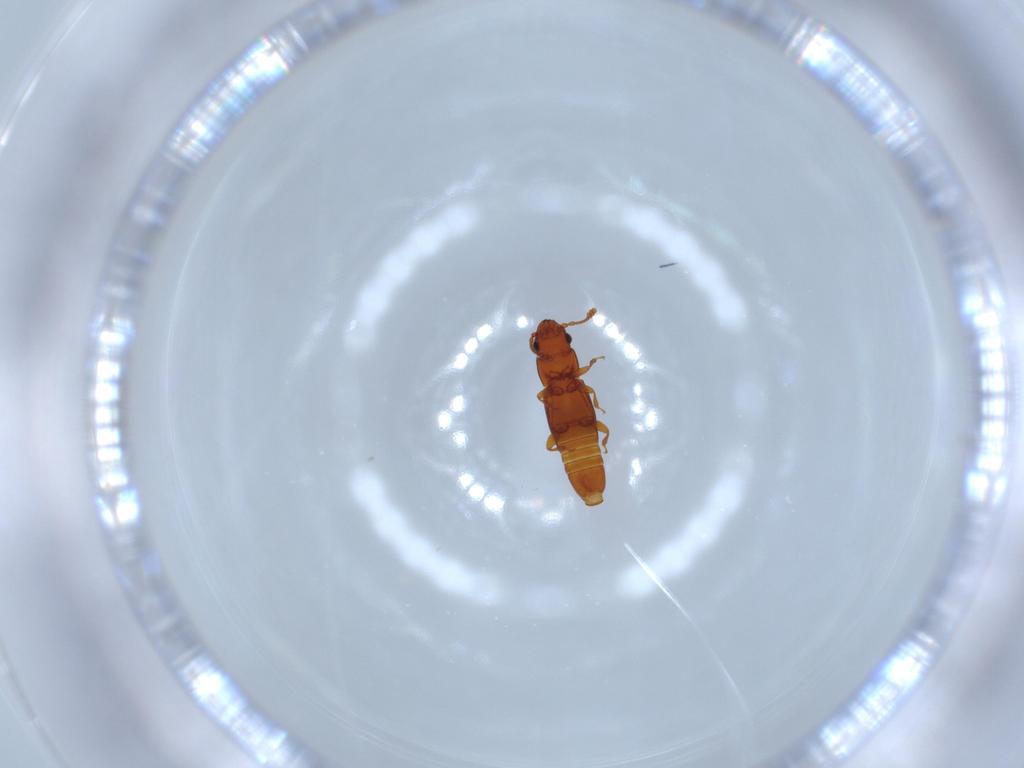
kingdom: Animalia
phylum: Arthropoda
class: Insecta
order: Coleoptera
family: Smicripidae
